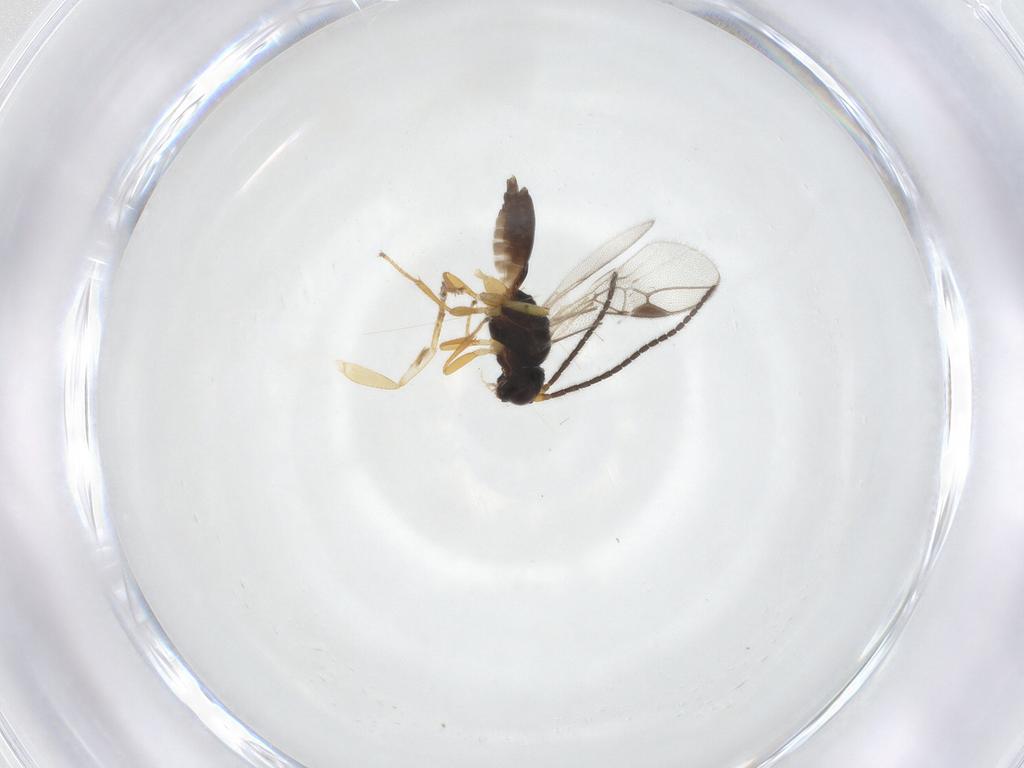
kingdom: Animalia
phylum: Arthropoda
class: Insecta
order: Hymenoptera
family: Braconidae
